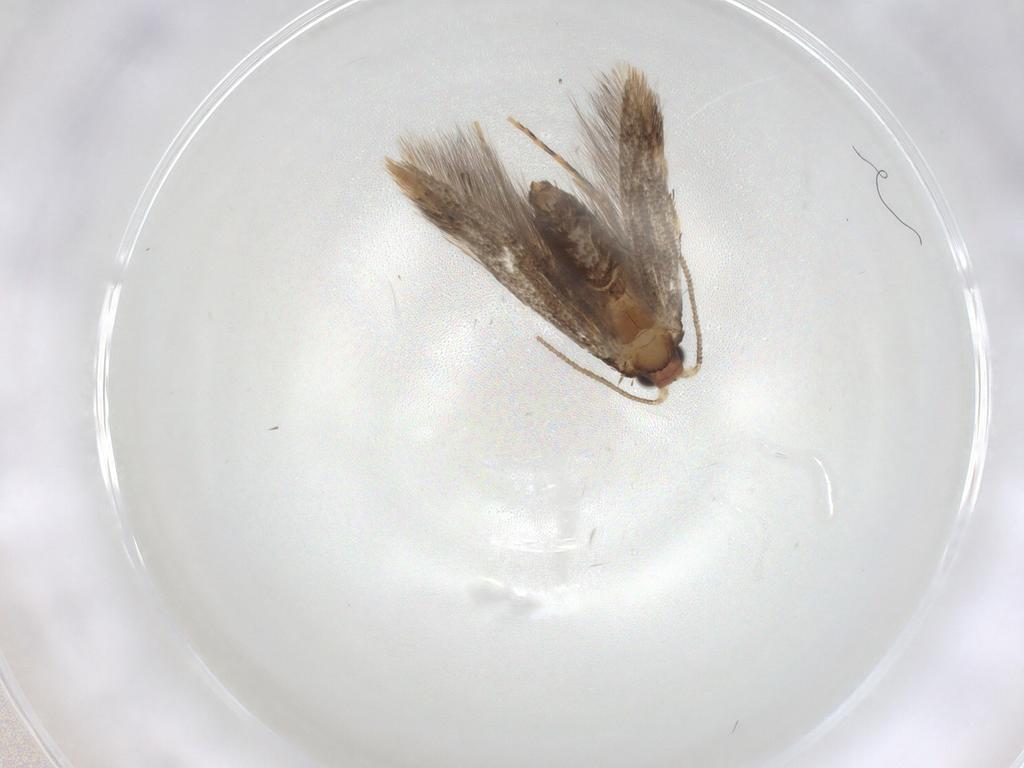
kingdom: Animalia
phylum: Arthropoda
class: Insecta
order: Lepidoptera
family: Tineidae
